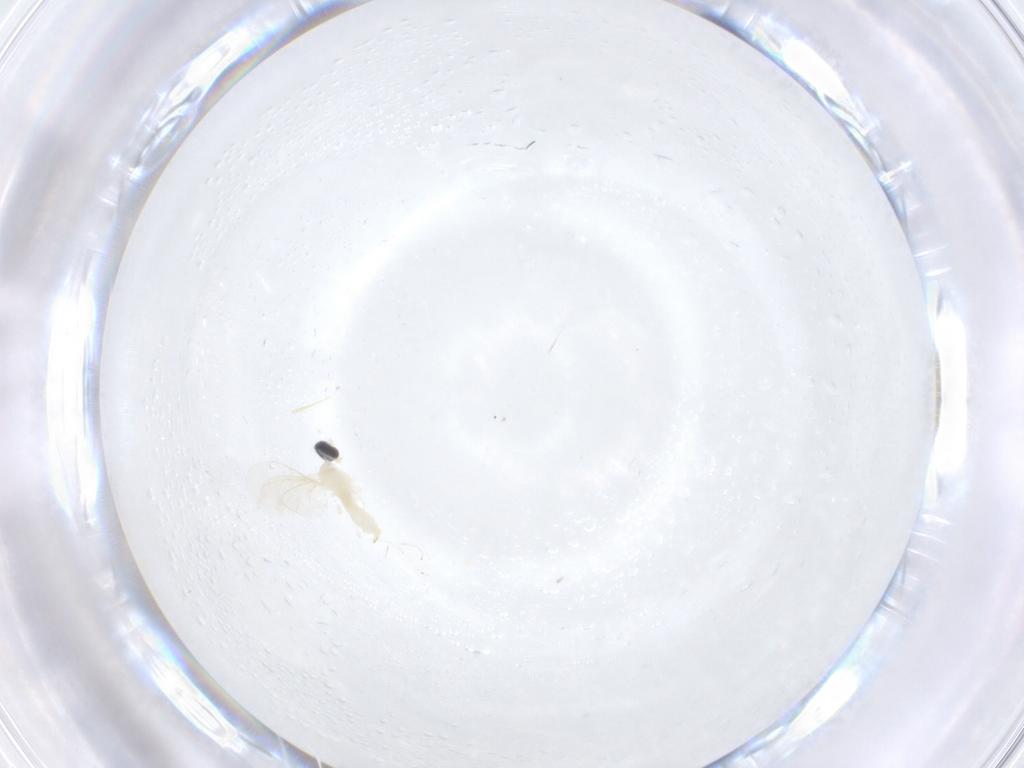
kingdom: Animalia
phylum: Arthropoda
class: Insecta
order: Diptera
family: Cecidomyiidae
